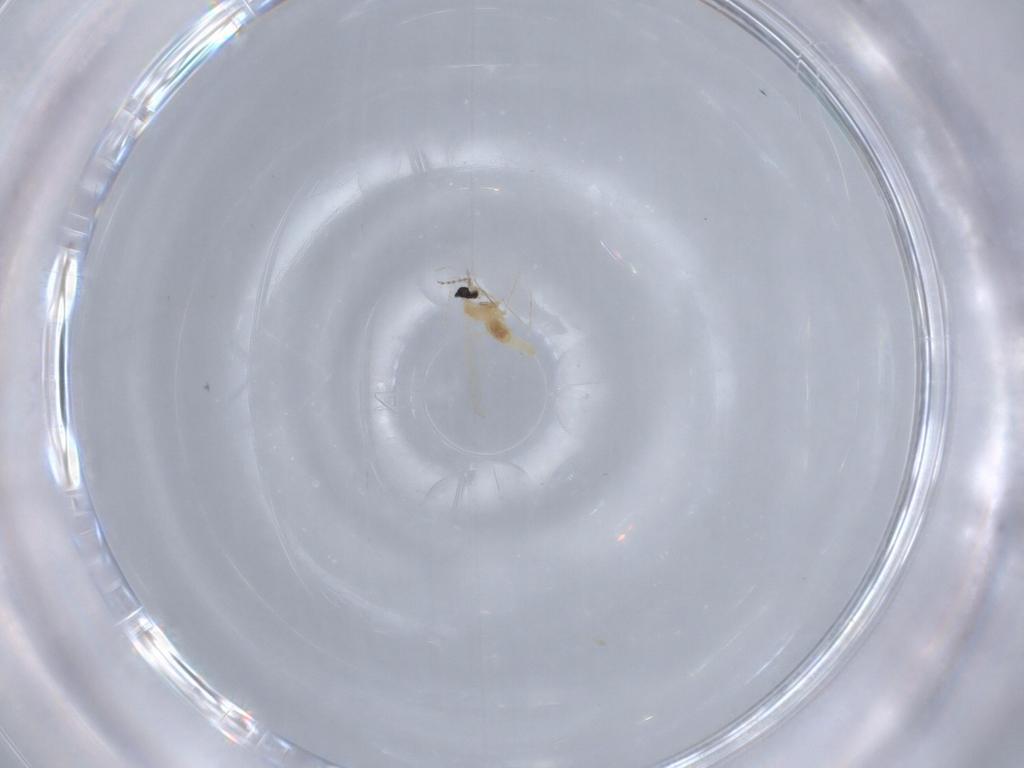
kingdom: Animalia
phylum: Arthropoda
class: Insecta
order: Diptera
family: Cecidomyiidae
